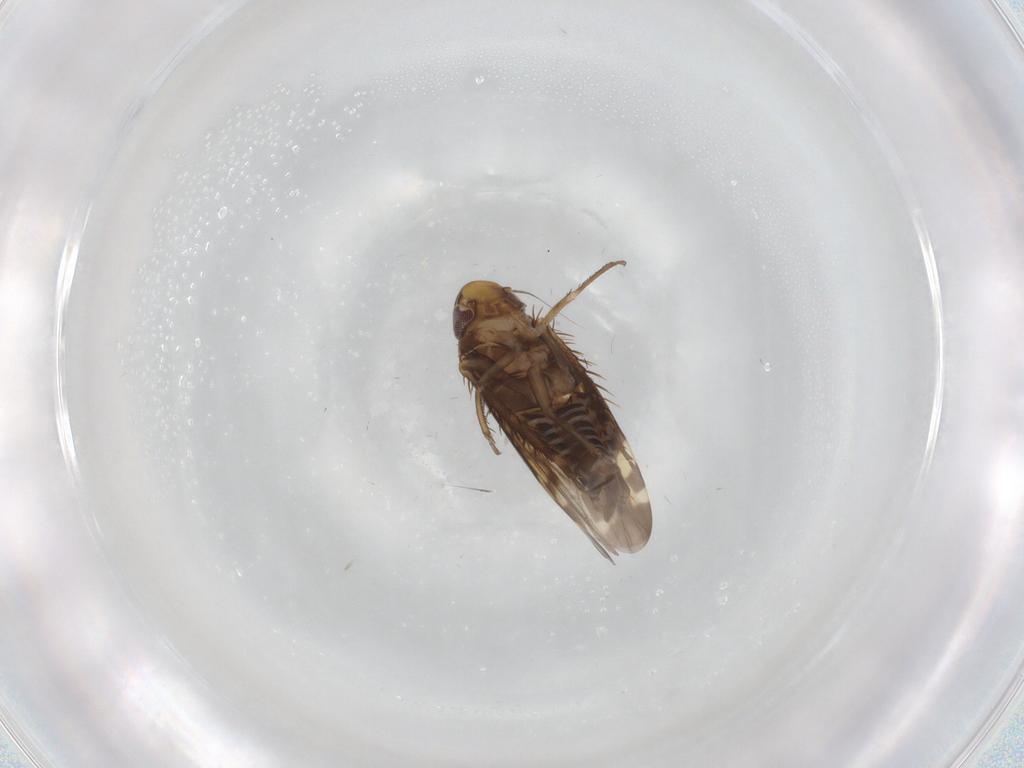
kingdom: Animalia
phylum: Arthropoda
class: Insecta
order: Hemiptera
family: Cicadellidae
